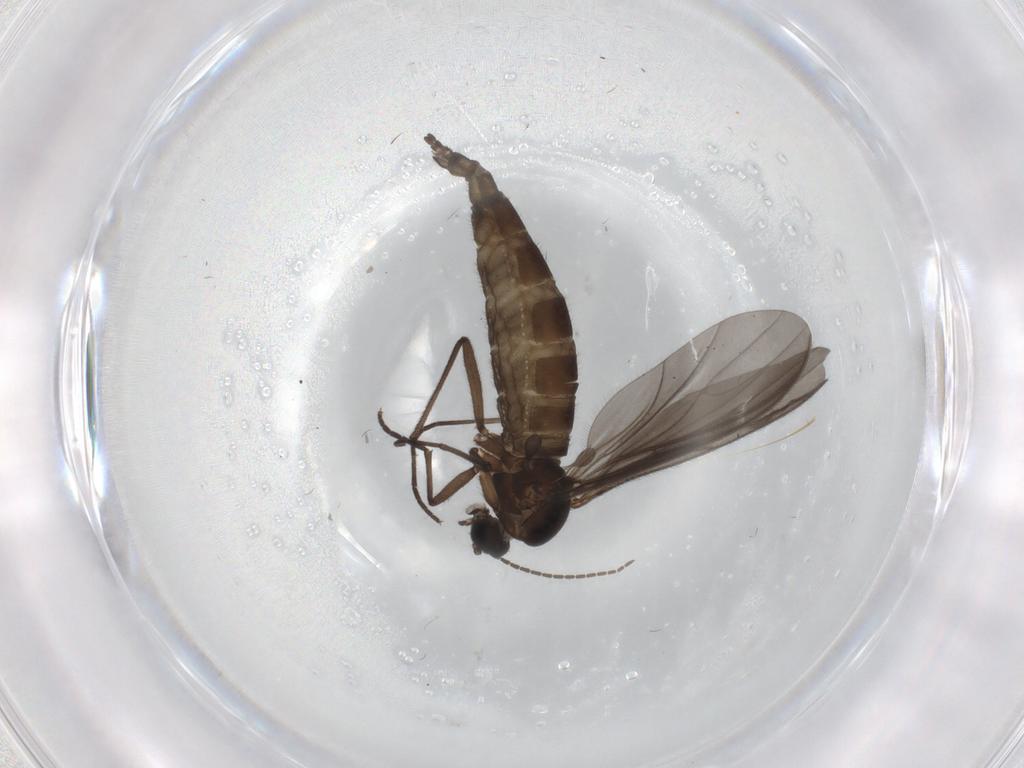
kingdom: Animalia
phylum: Arthropoda
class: Insecta
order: Diptera
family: Sciaridae
